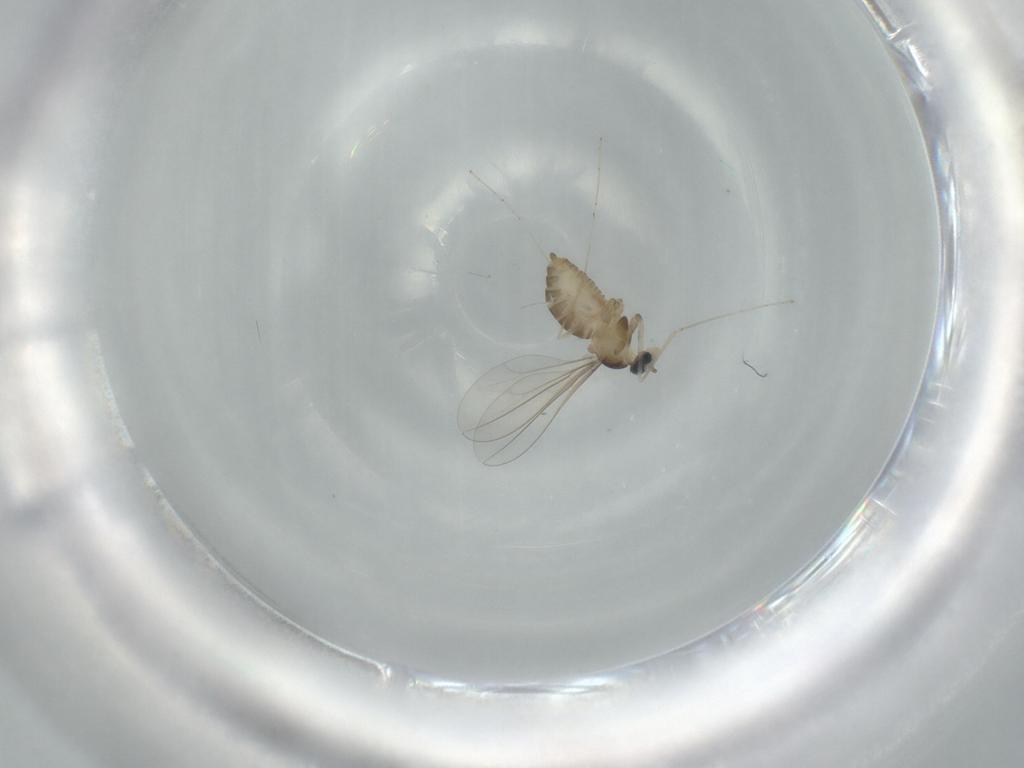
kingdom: Animalia
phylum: Arthropoda
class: Insecta
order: Diptera
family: Cecidomyiidae
